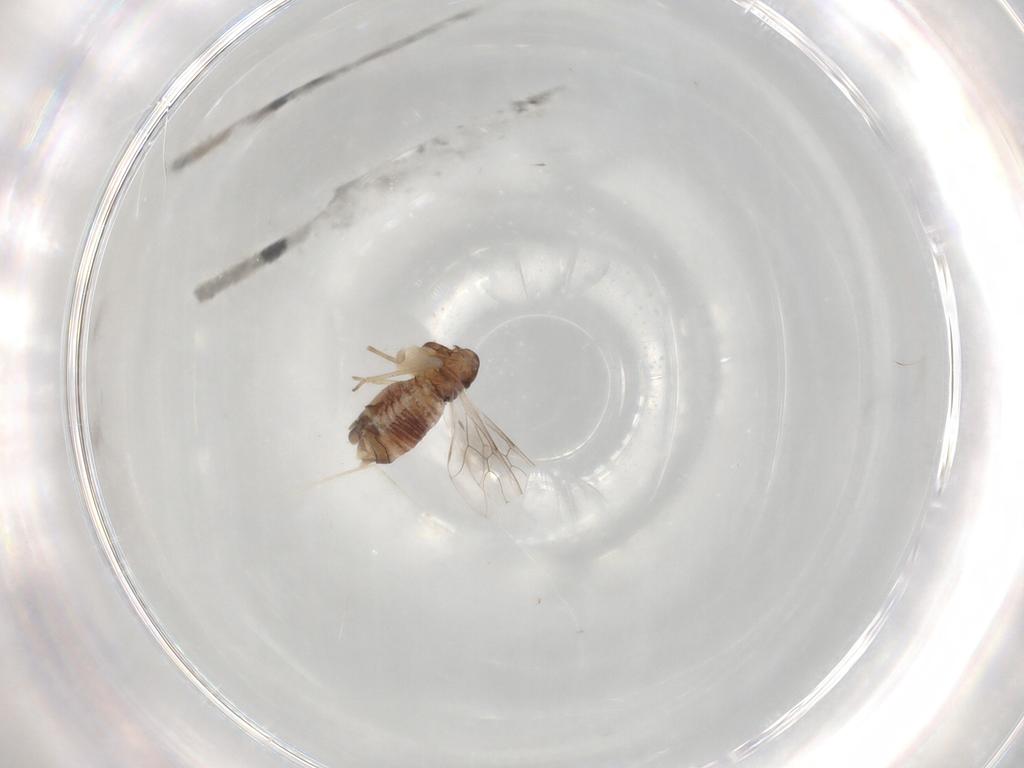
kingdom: Animalia
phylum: Arthropoda
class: Insecta
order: Psocodea
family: Peripsocidae
